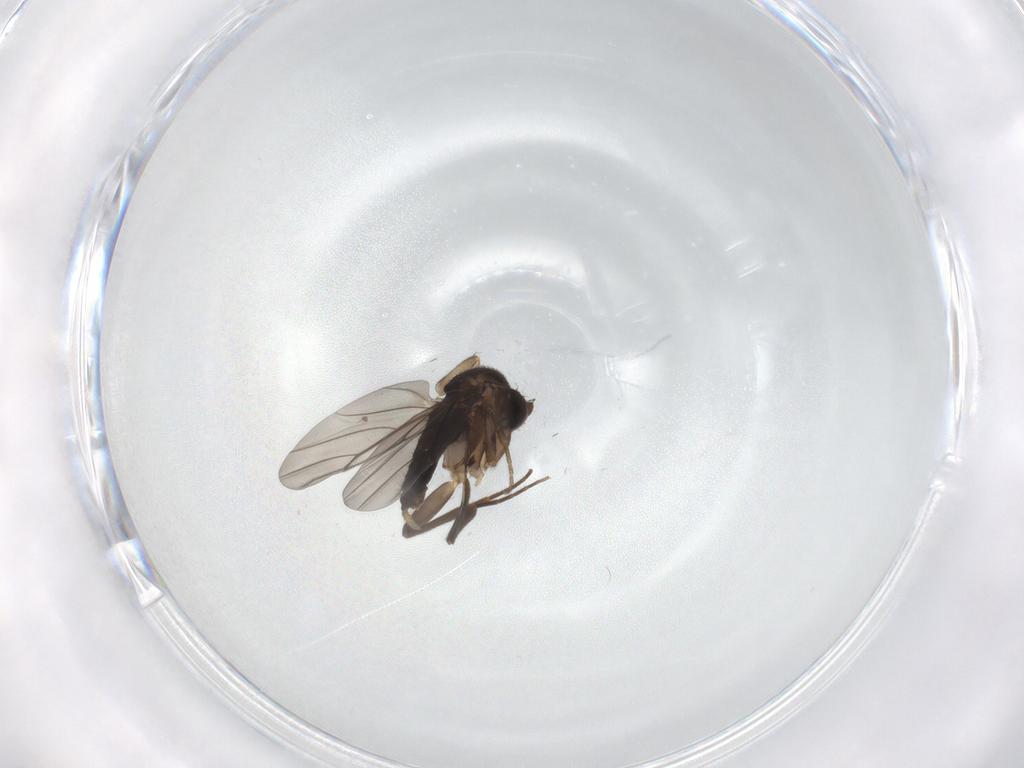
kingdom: Animalia
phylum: Arthropoda
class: Insecta
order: Diptera
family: Phoridae
